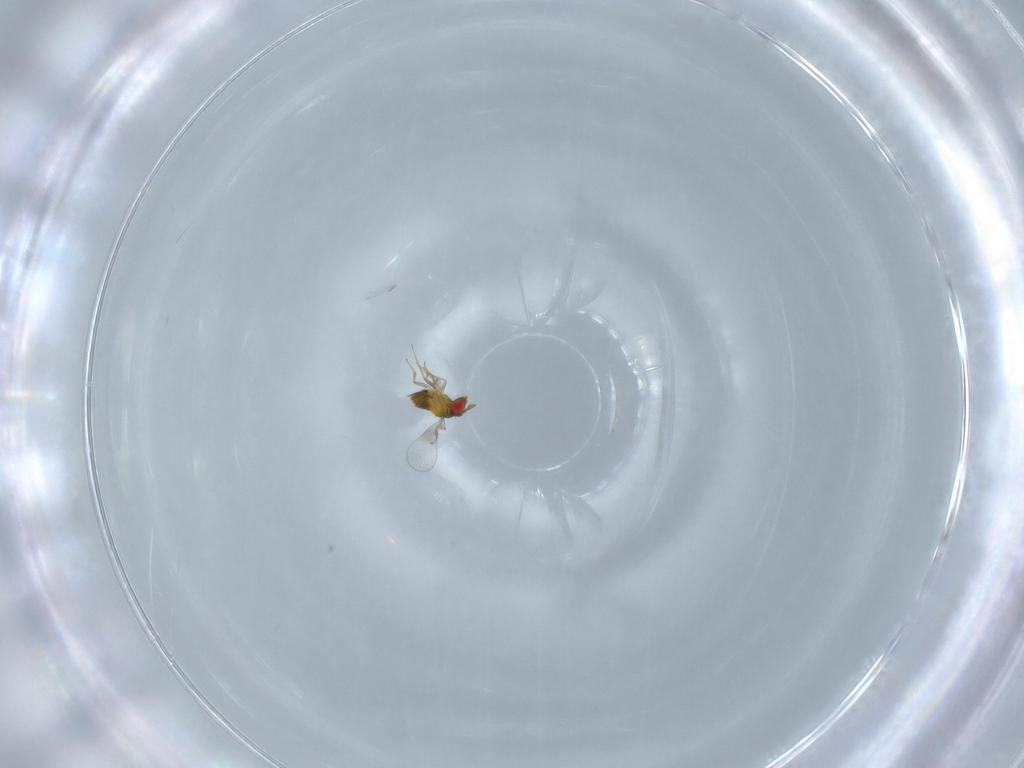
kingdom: Animalia
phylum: Arthropoda
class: Insecta
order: Hymenoptera
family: Trichogrammatidae
